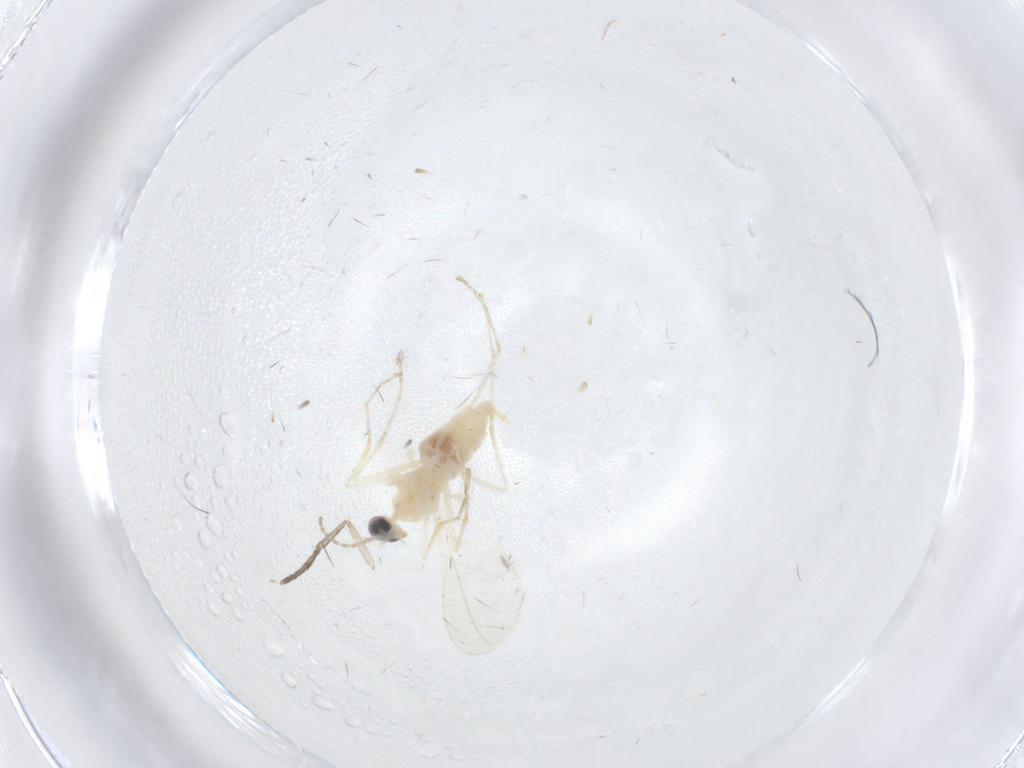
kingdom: Animalia
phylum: Arthropoda
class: Insecta
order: Diptera
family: Cecidomyiidae
